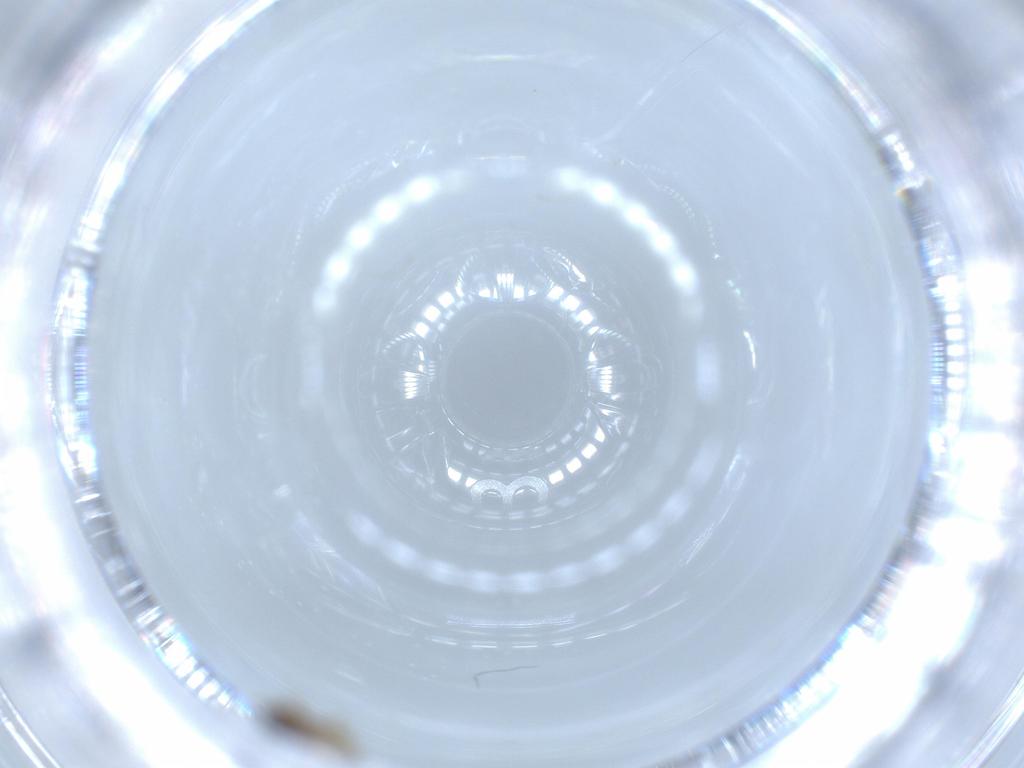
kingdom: Animalia
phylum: Arthropoda
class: Insecta
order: Diptera
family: Cecidomyiidae
